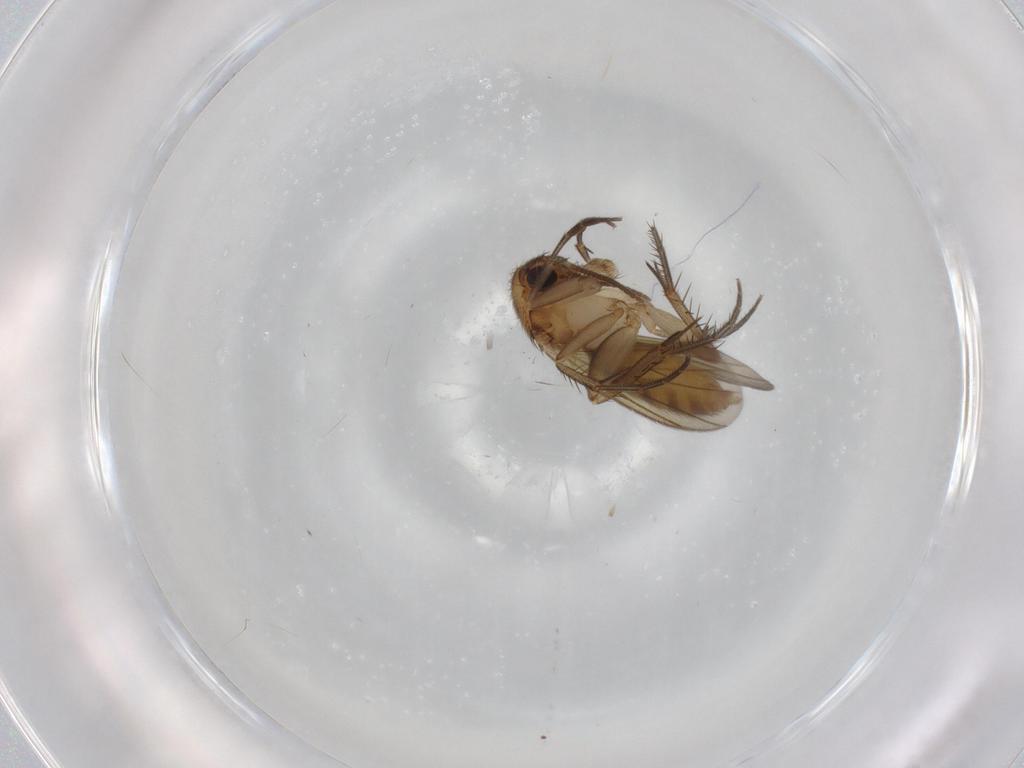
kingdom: Animalia
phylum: Arthropoda
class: Insecta
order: Diptera
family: Mycetophilidae
